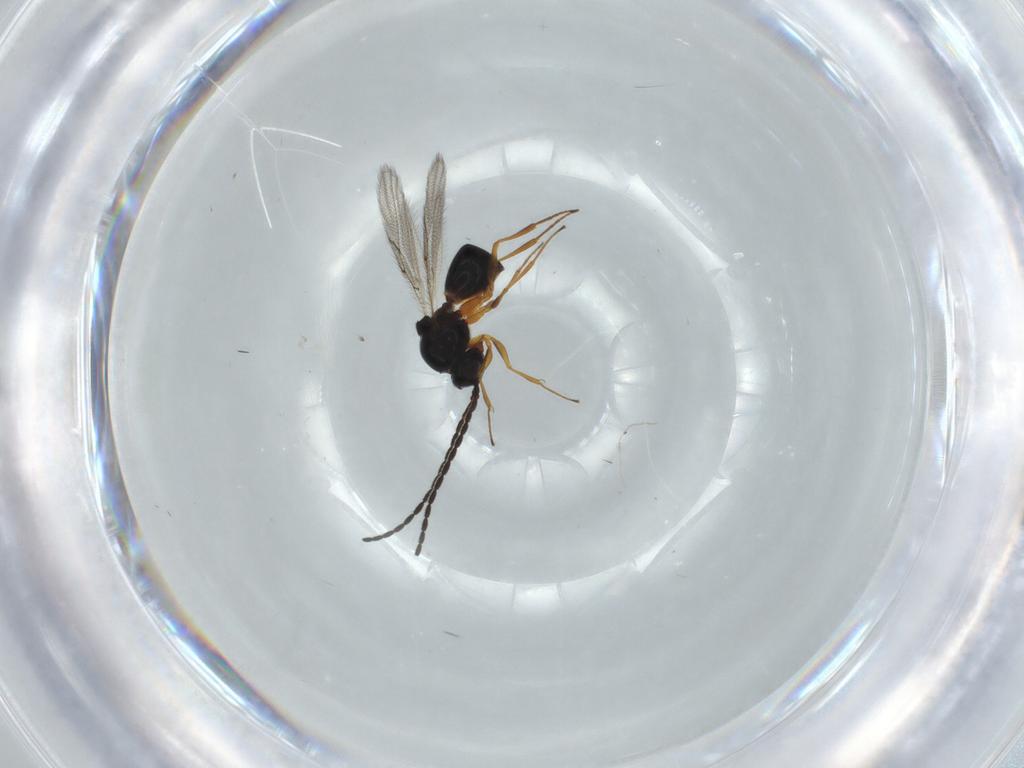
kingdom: Animalia
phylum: Arthropoda
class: Insecta
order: Hymenoptera
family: Figitidae
